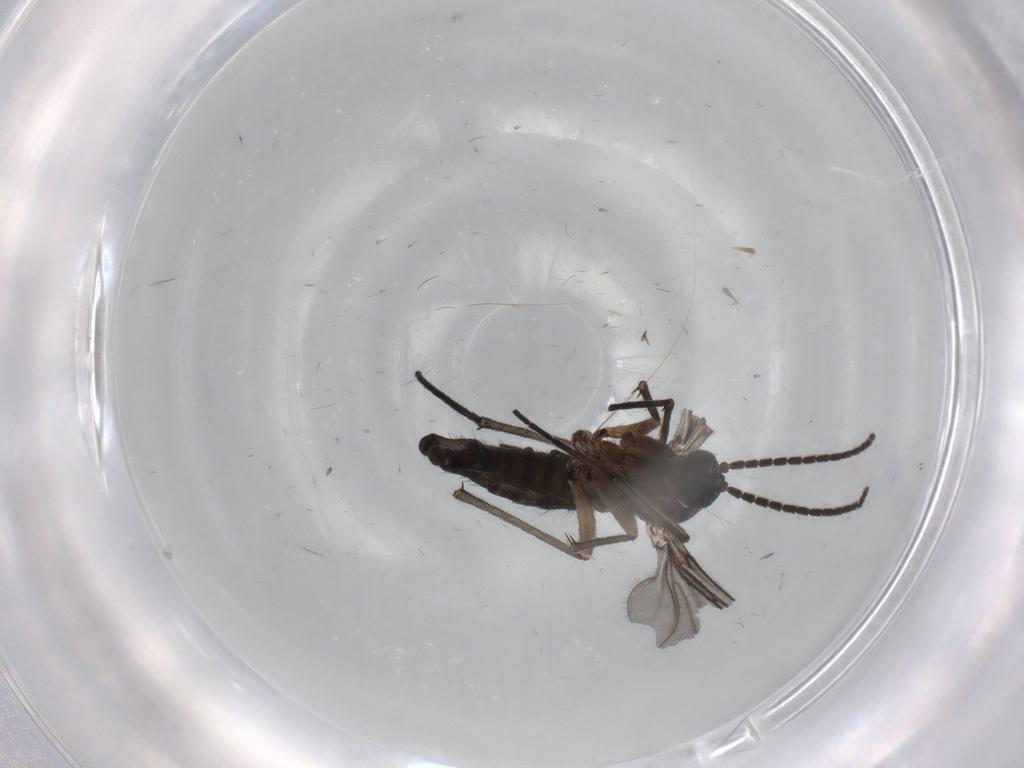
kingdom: Animalia
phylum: Arthropoda
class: Insecta
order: Diptera
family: Sciaridae
